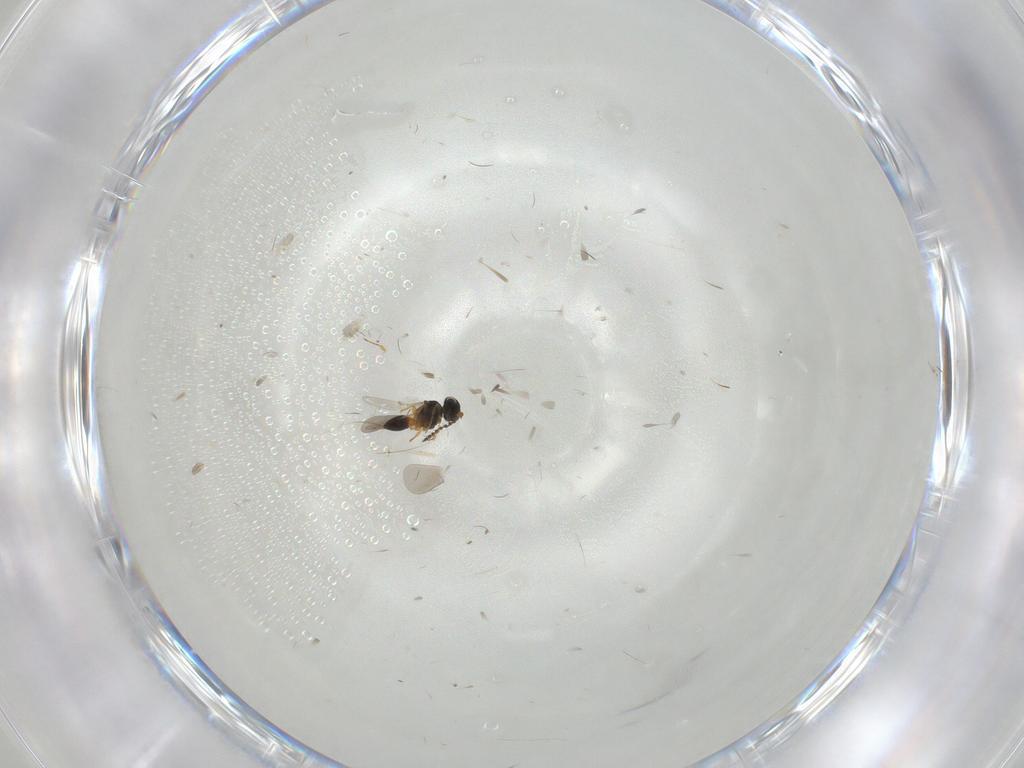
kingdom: Animalia
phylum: Arthropoda
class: Insecta
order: Hymenoptera
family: Platygastridae
